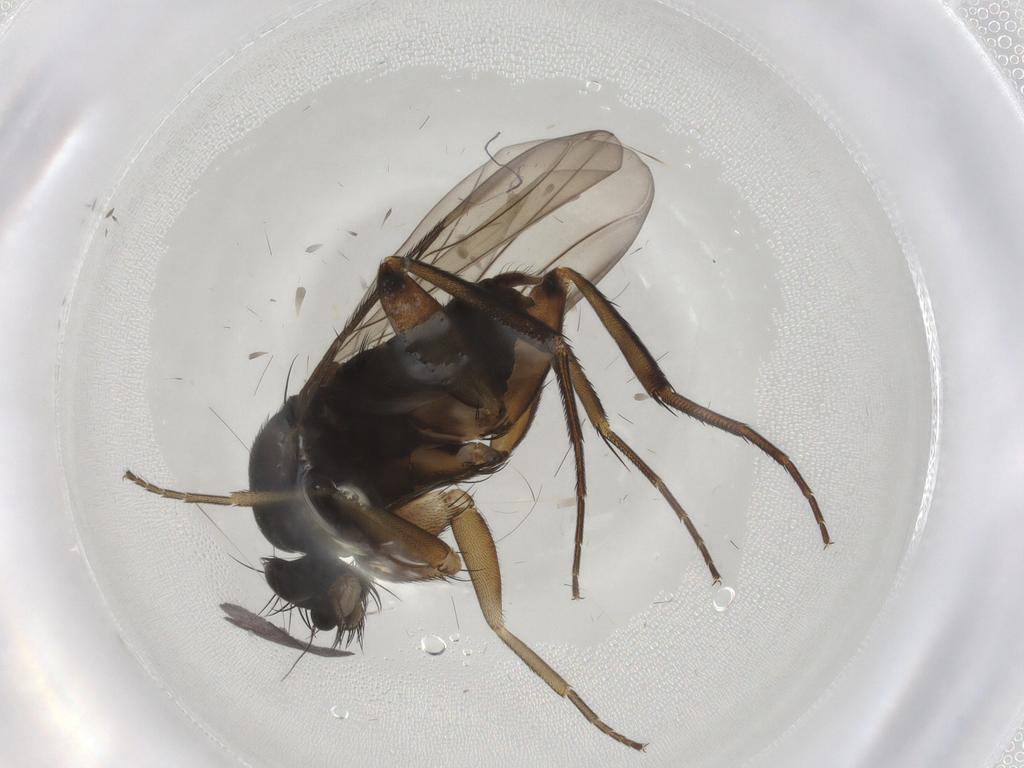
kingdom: Animalia
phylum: Arthropoda
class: Insecta
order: Diptera
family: Phoridae
